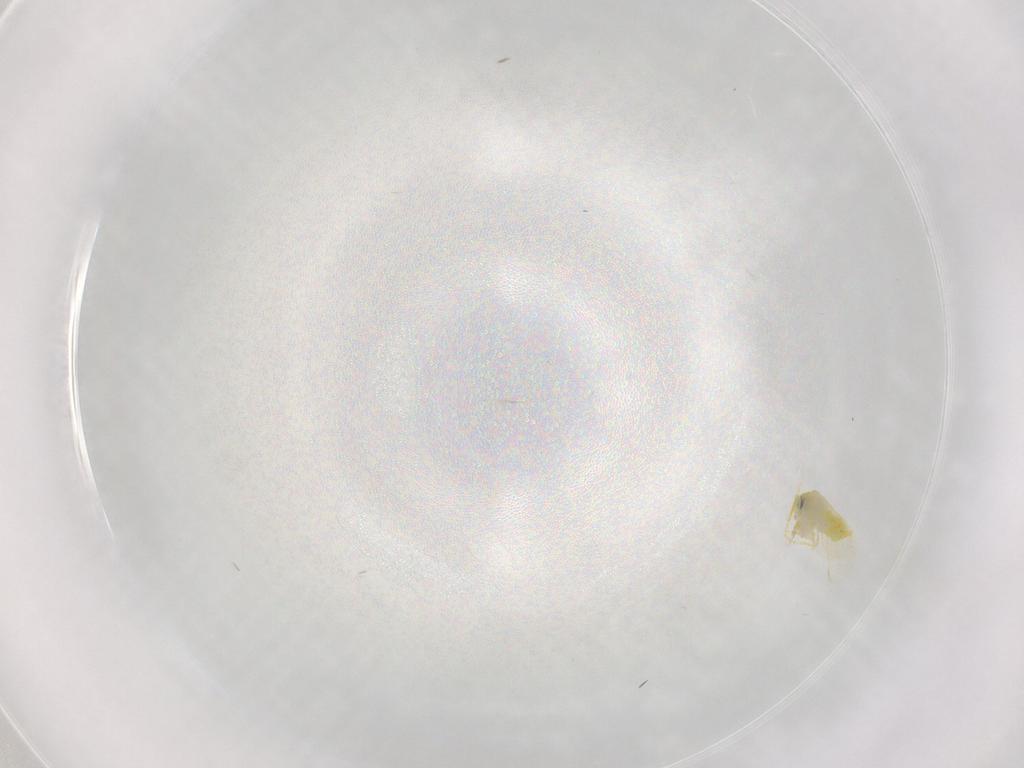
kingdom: Animalia
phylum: Arthropoda
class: Insecta
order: Hemiptera
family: Aleyrodidae
